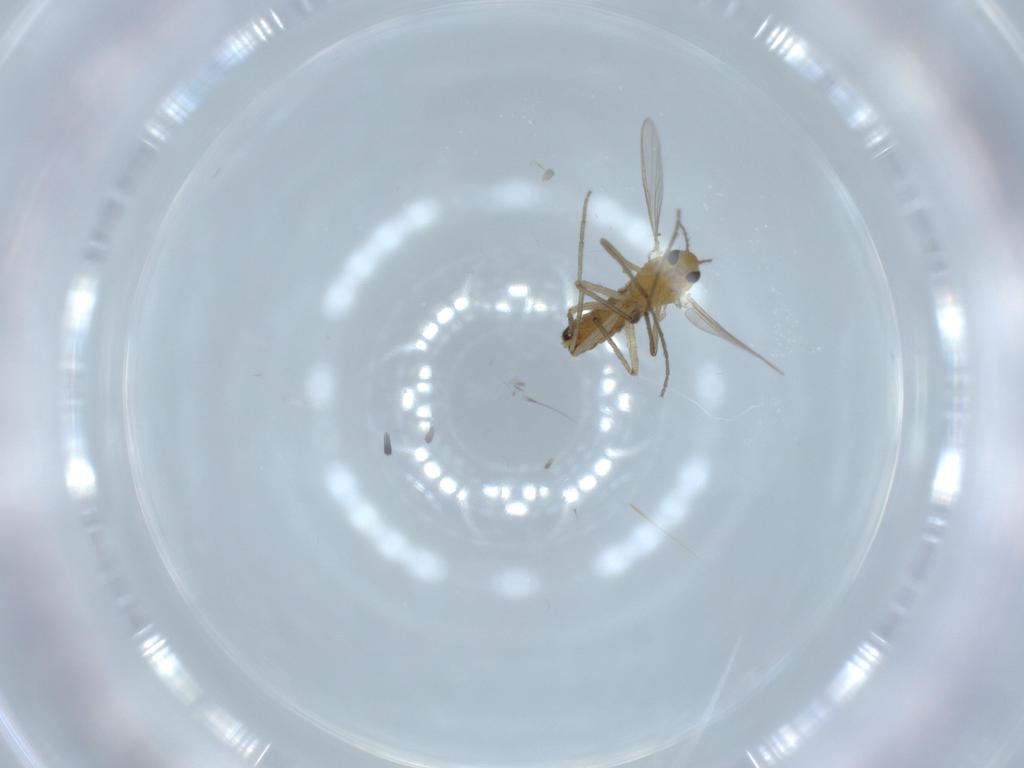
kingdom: Animalia
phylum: Arthropoda
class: Insecta
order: Diptera
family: Chironomidae
